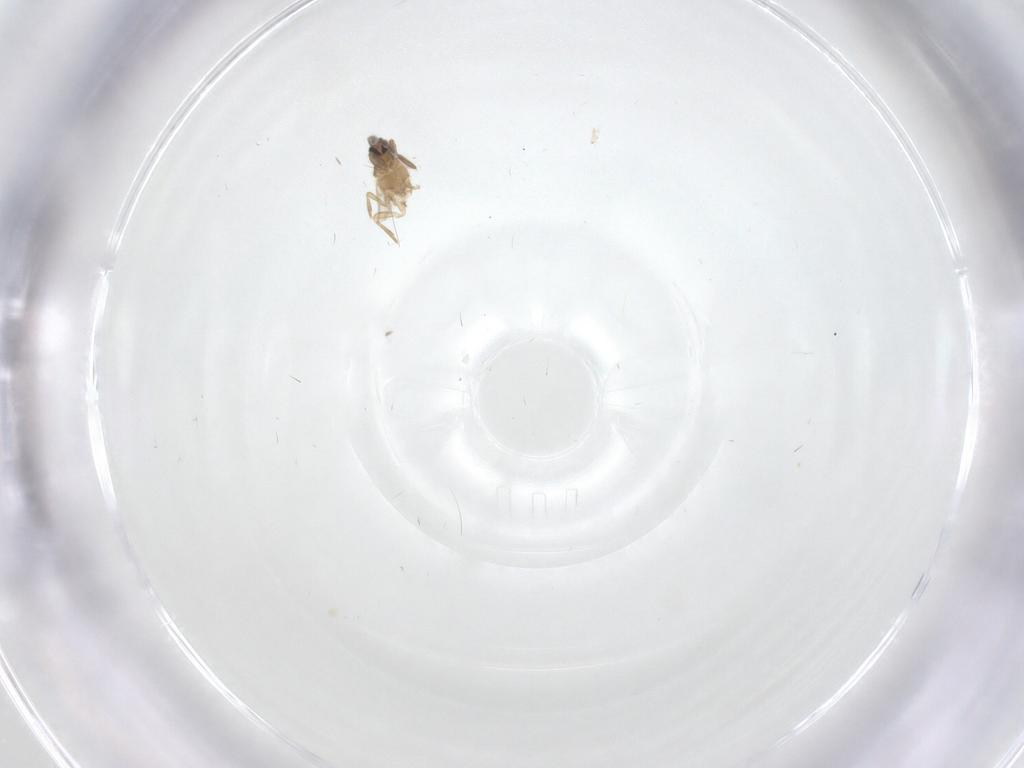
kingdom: Animalia
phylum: Arthropoda
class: Insecta
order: Hemiptera
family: Enicocephalidae
